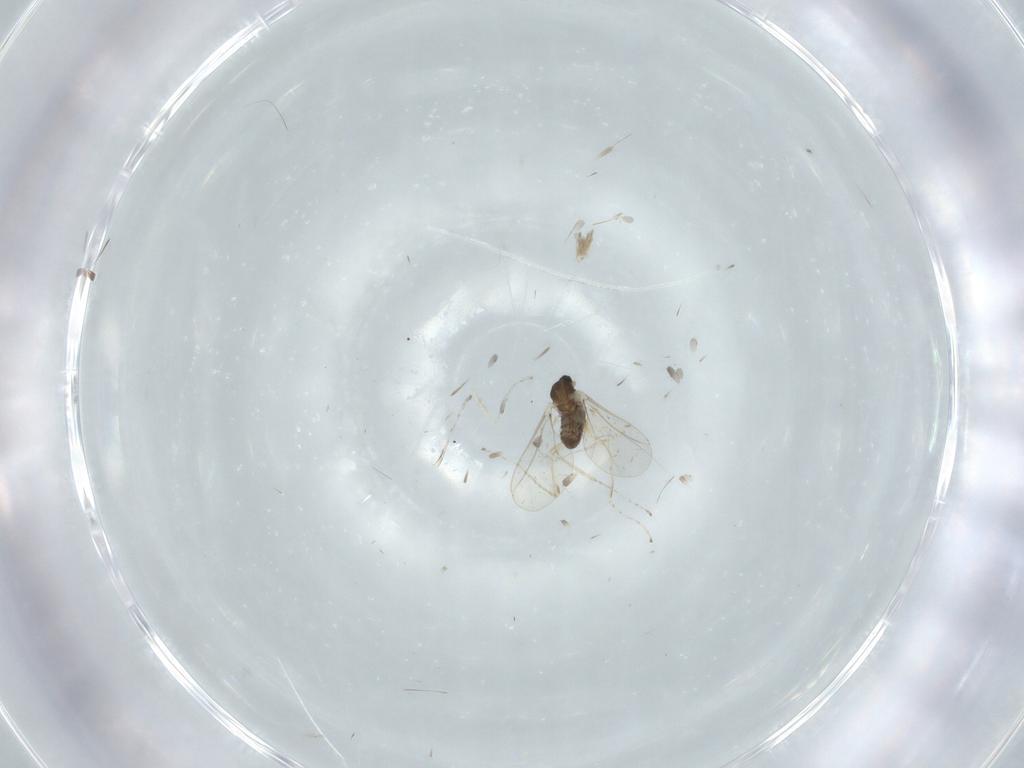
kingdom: Animalia
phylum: Arthropoda
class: Insecta
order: Diptera
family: Cecidomyiidae
